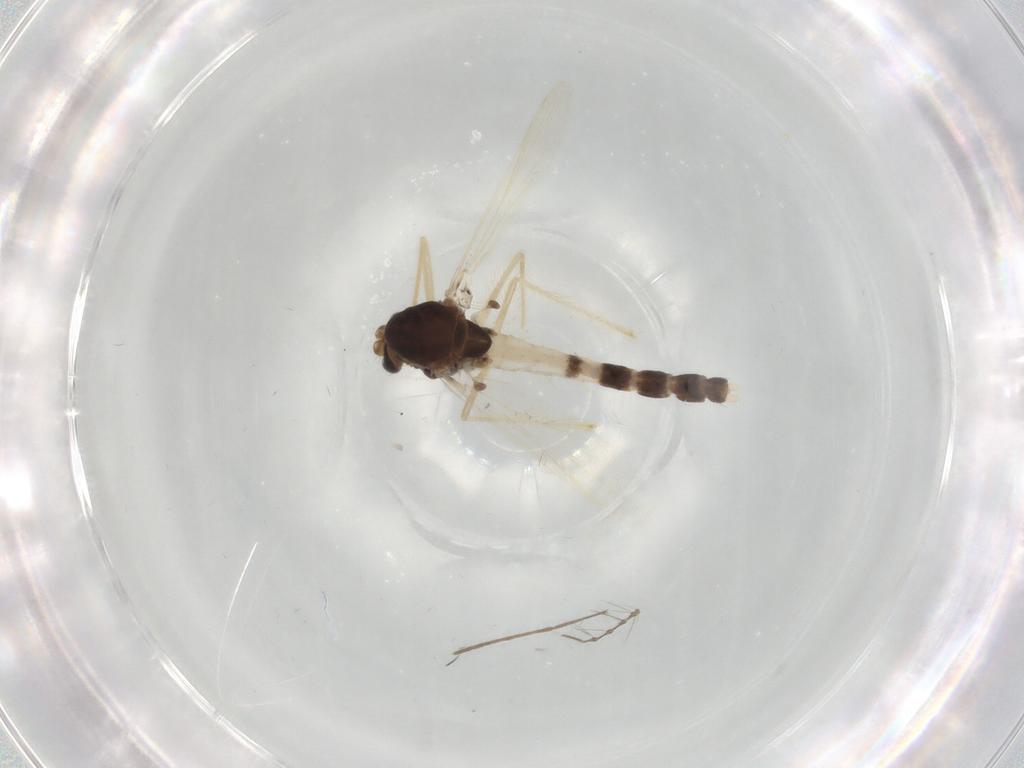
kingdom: Animalia
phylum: Arthropoda
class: Insecta
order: Diptera
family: Chironomidae
